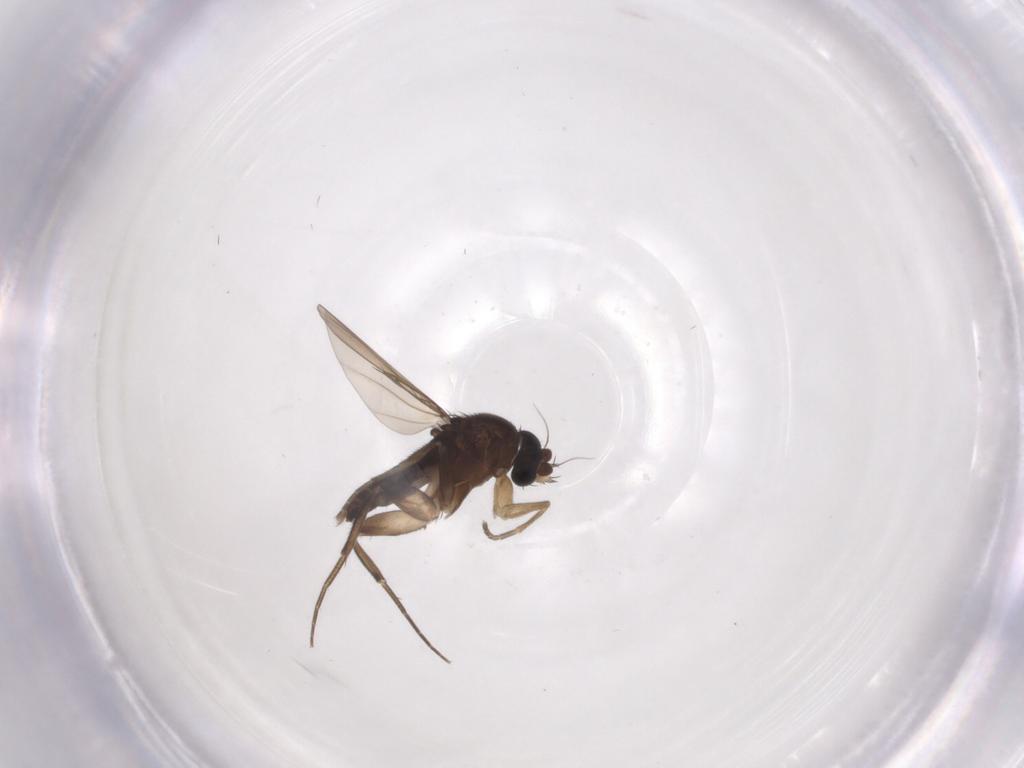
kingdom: Animalia
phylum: Arthropoda
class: Insecta
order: Diptera
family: Phoridae
